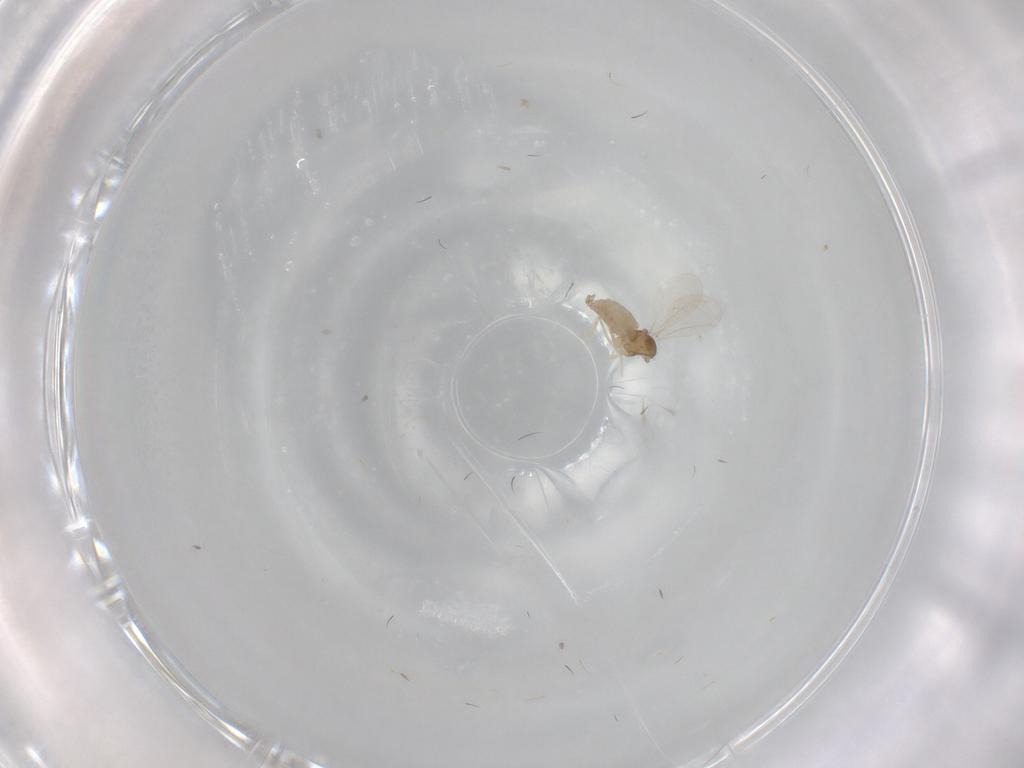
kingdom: Animalia
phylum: Arthropoda
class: Insecta
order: Diptera
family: Cecidomyiidae
